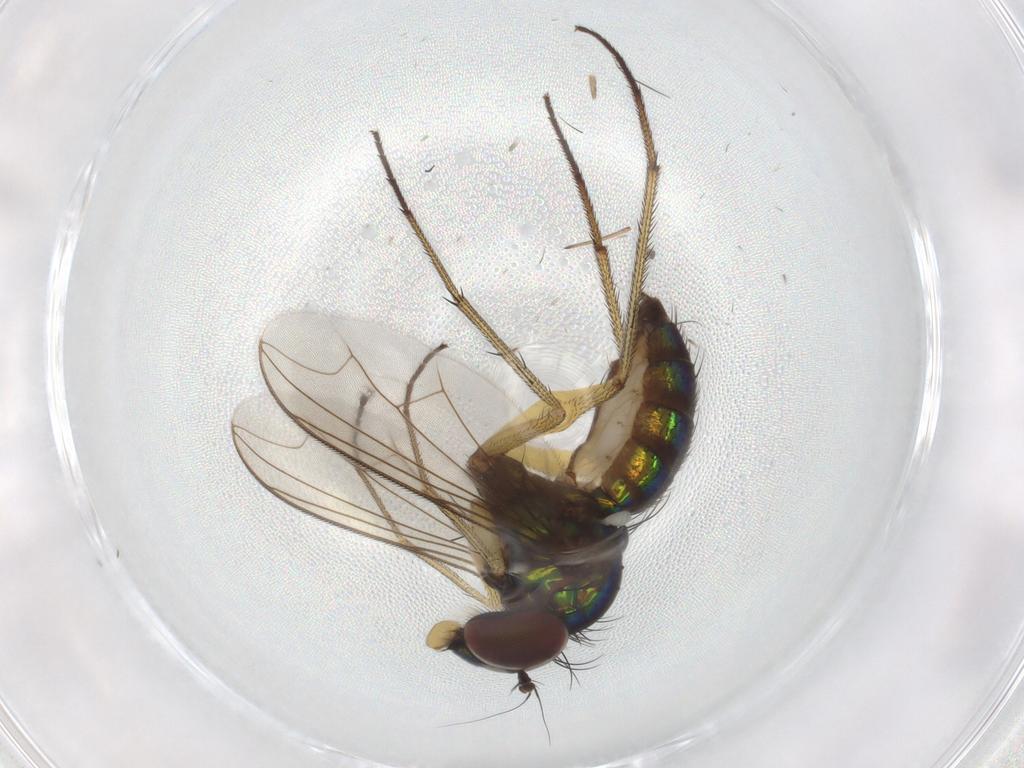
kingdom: Animalia
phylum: Arthropoda
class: Insecta
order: Diptera
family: Dolichopodidae
